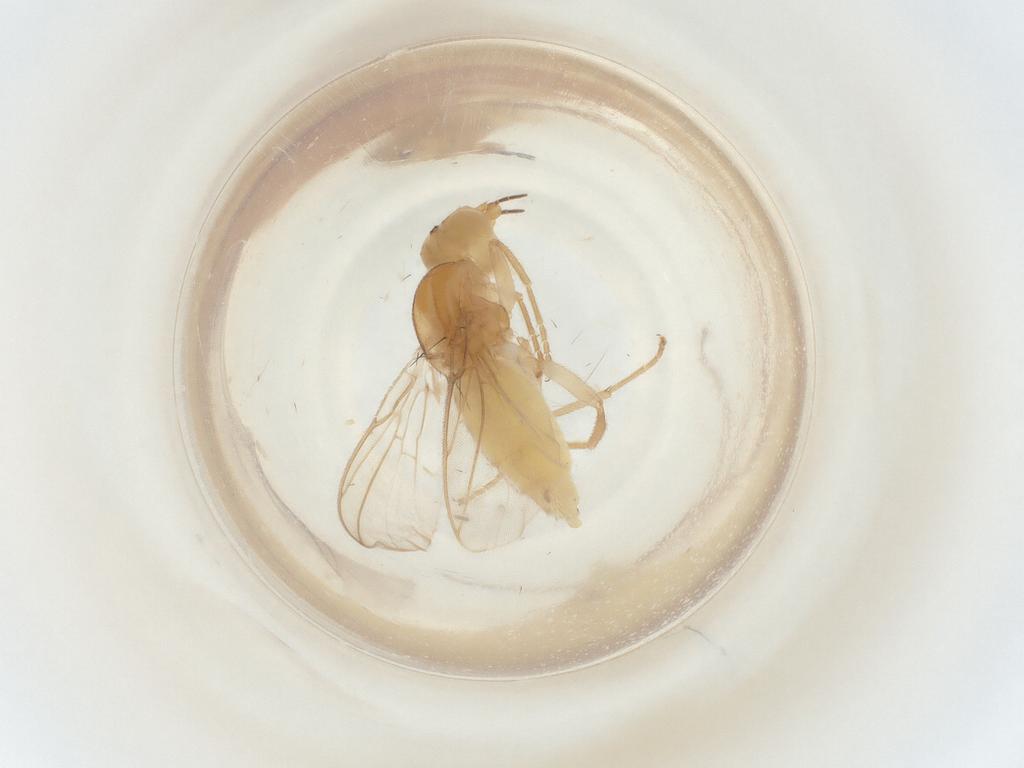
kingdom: Animalia
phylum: Arthropoda
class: Insecta
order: Diptera
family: Chloropidae
